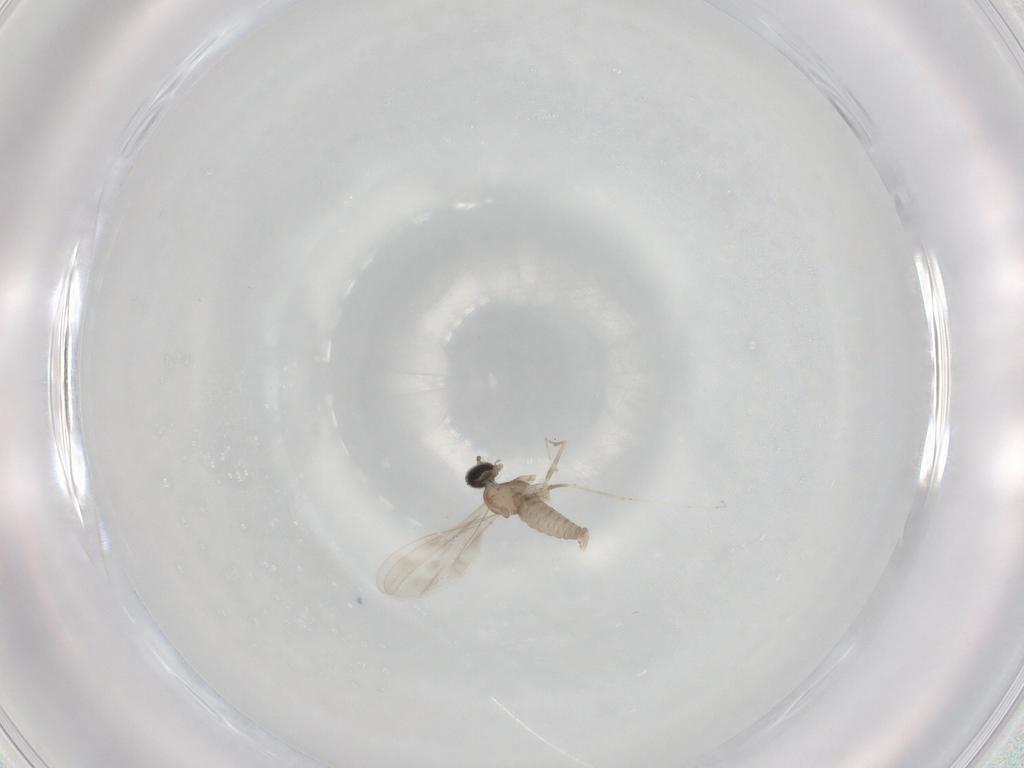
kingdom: Animalia
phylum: Arthropoda
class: Insecta
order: Diptera
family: Cecidomyiidae
